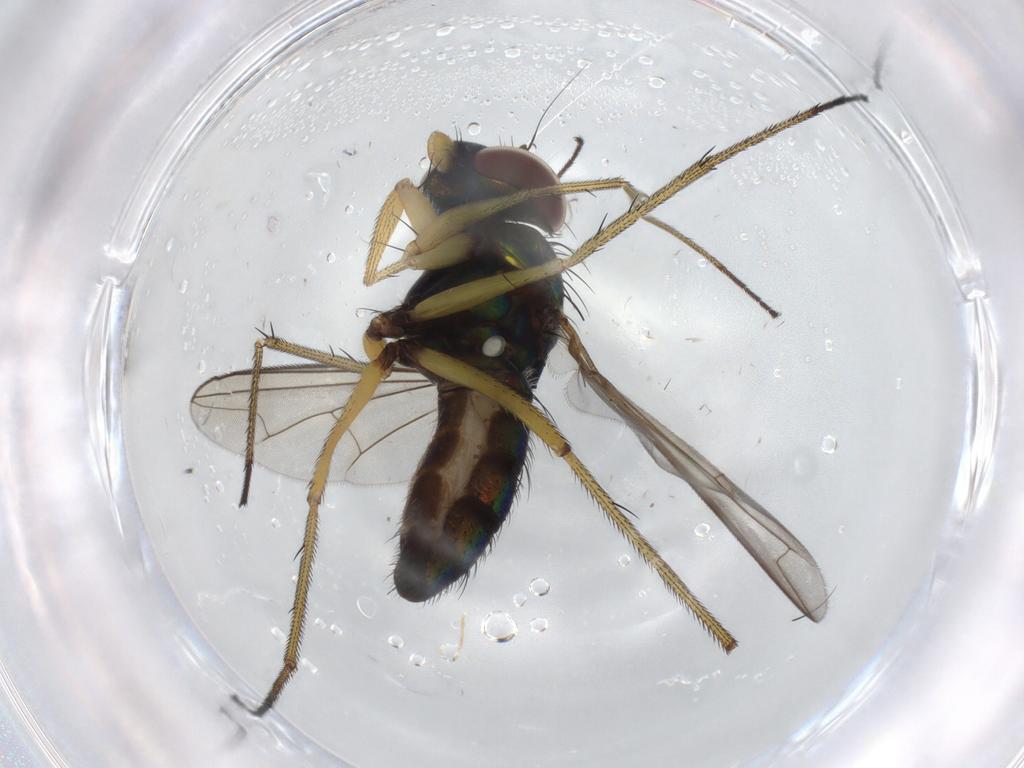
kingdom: Animalia
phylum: Arthropoda
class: Insecta
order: Diptera
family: Dolichopodidae
